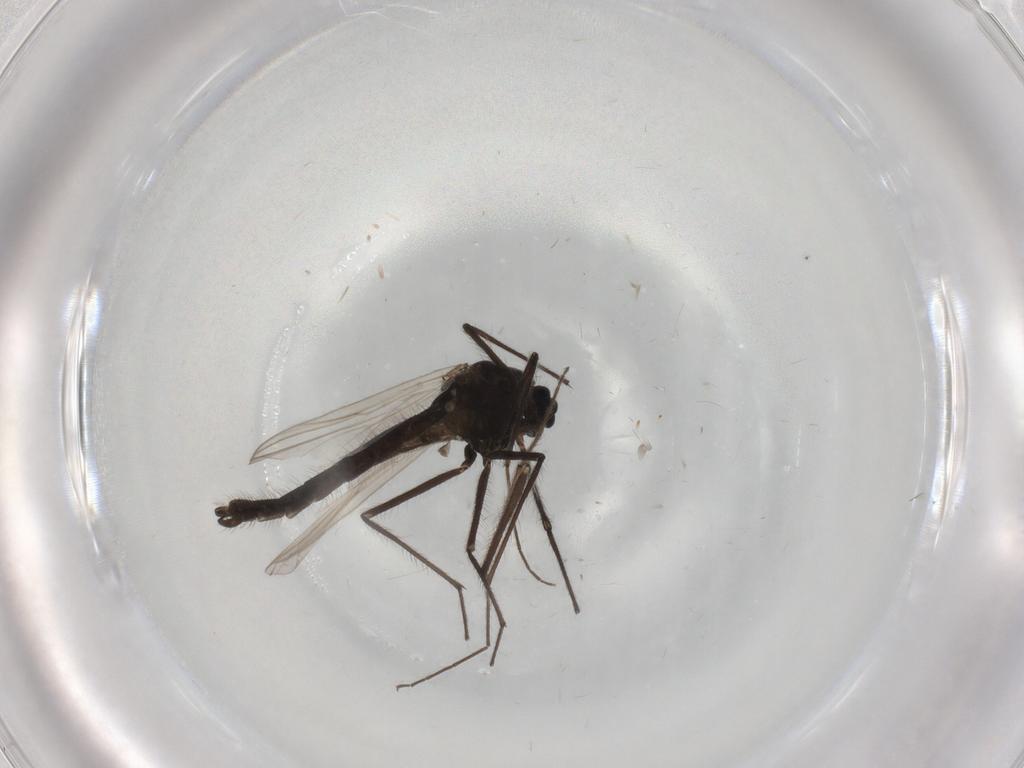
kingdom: Animalia
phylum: Arthropoda
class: Insecta
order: Diptera
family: Chironomidae
